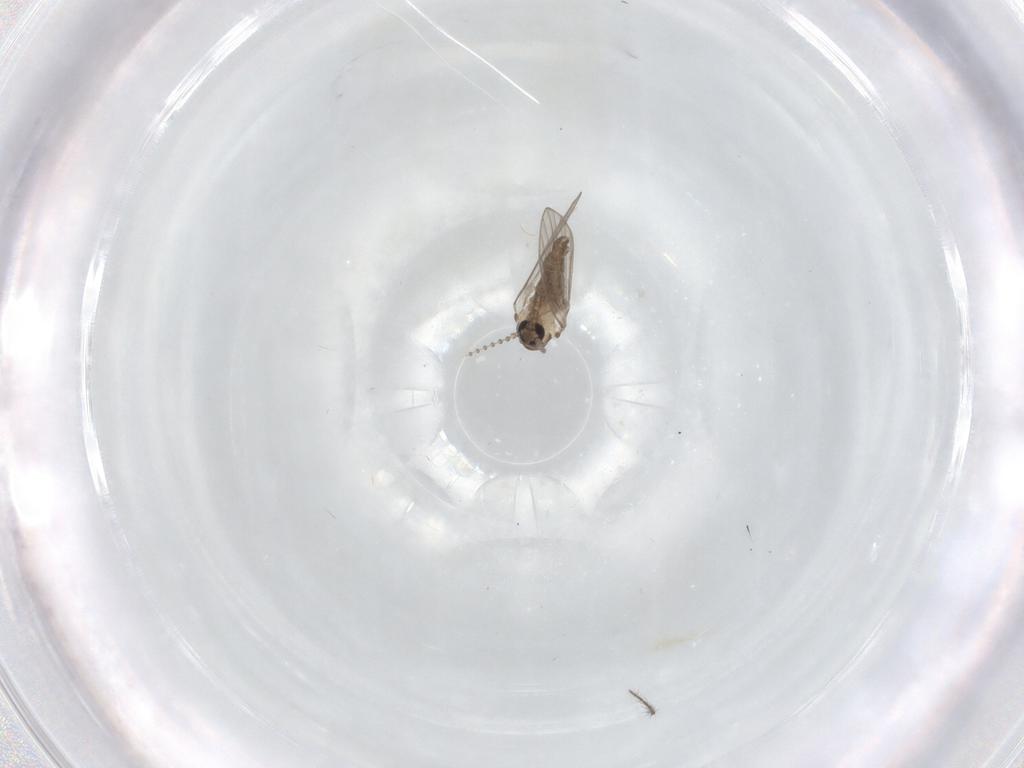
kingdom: Animalia
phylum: Arthropoda
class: Insecta
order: Diptera
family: Psychodidae
